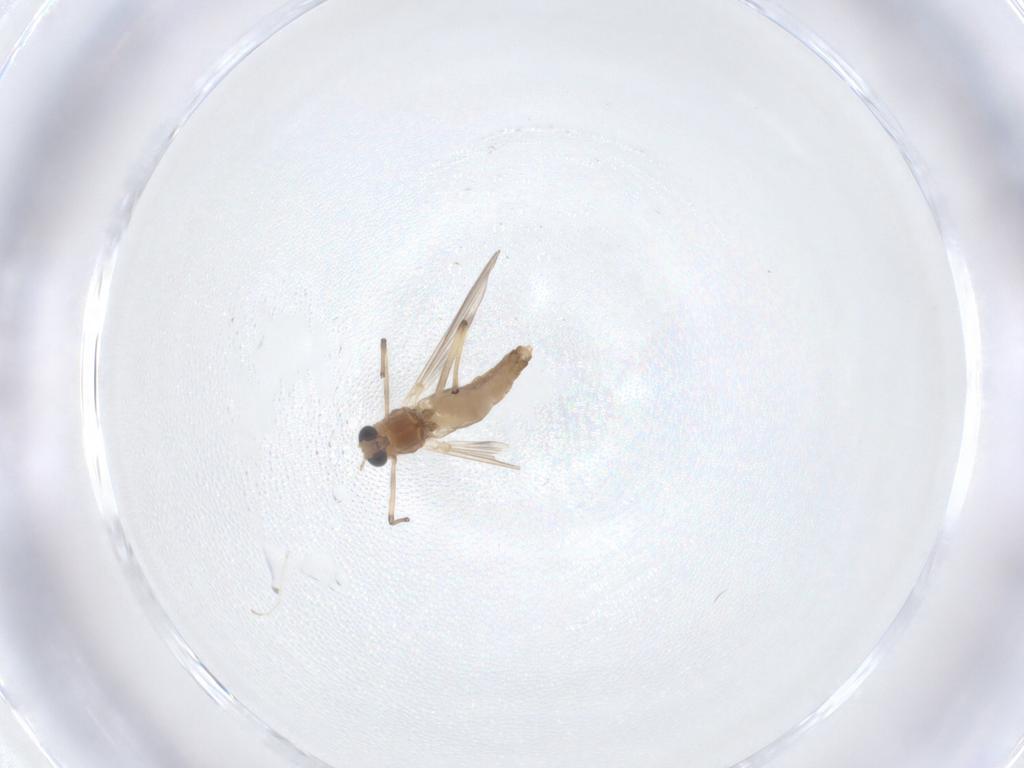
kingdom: Animalia
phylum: Arthropoda
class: Insecta
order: Diptera
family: Chironomidae
